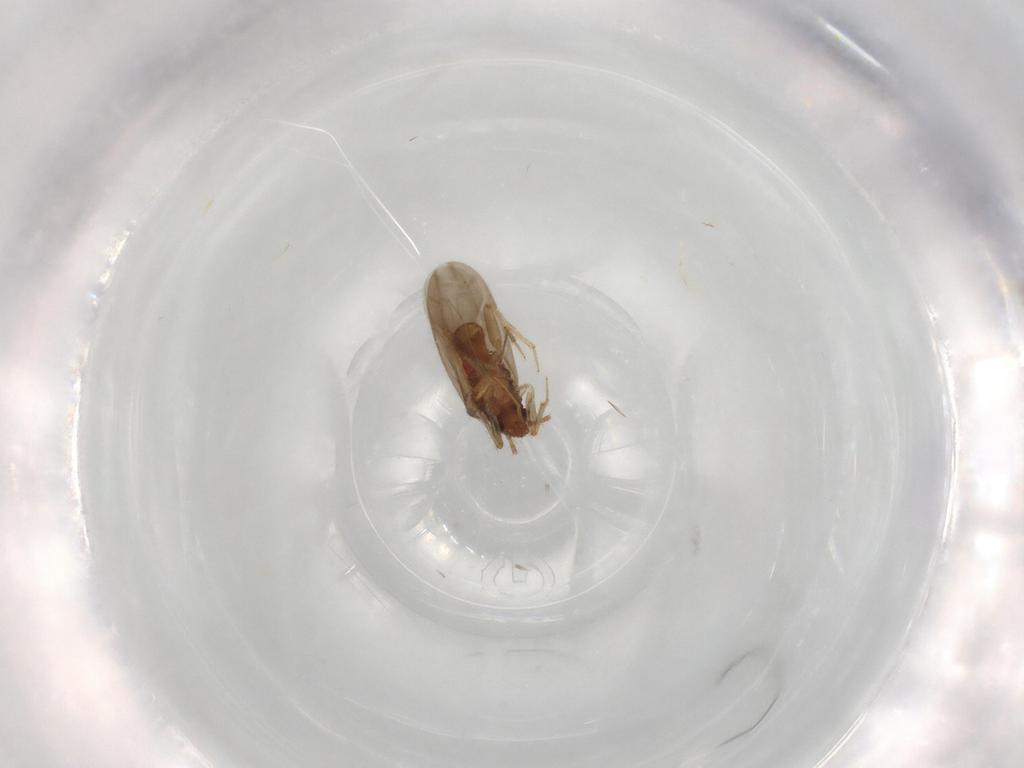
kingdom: Animalia
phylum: Arthropoda
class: Insecta
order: Hemiptera
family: Ceratocombidae
